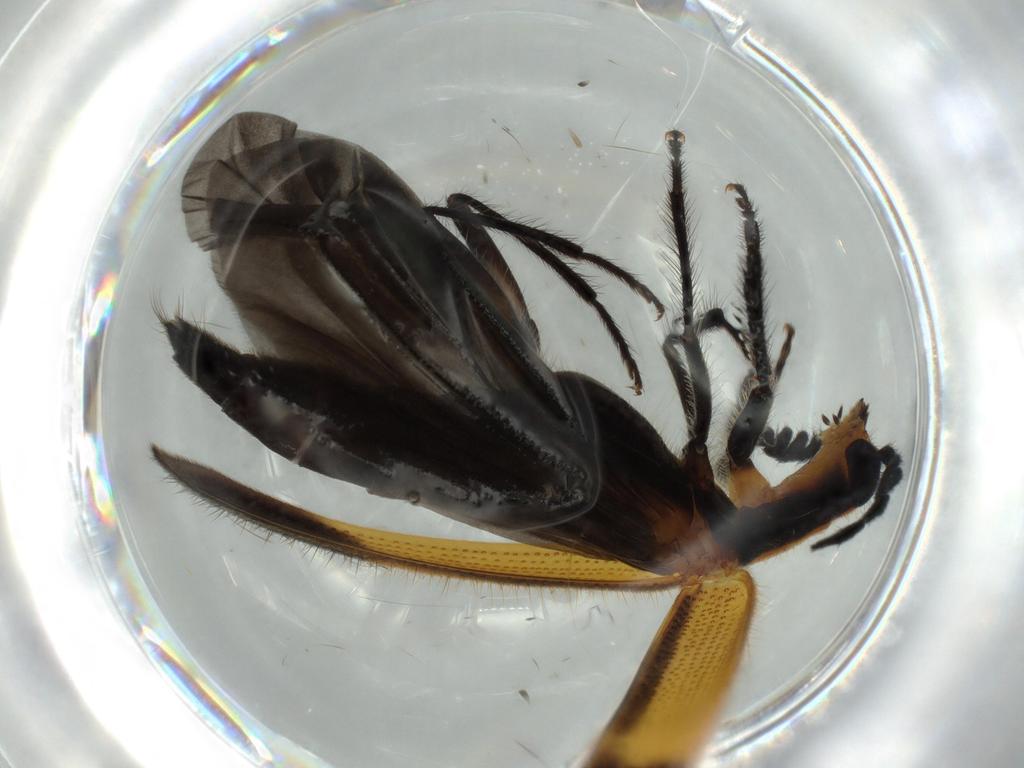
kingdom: Animalia
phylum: Arthropoda
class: Insecta
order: Coleoptera
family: Cleridae
